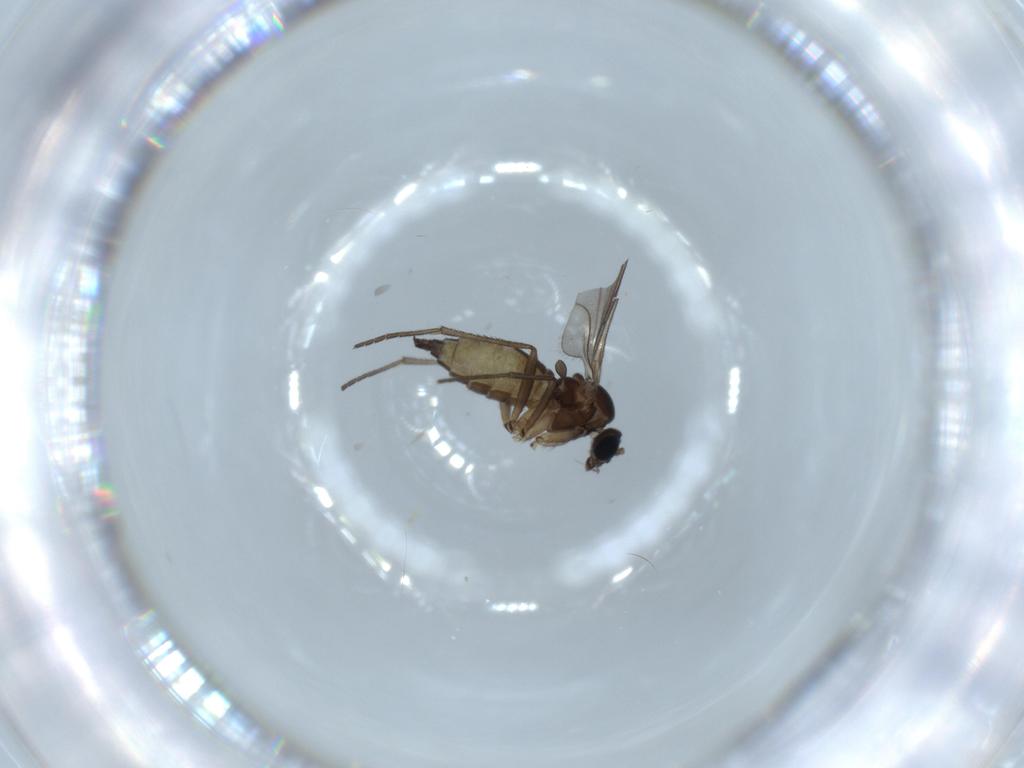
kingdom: Animalia
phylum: Arthropoda
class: Insecta
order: Diptera
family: Sciaridae
